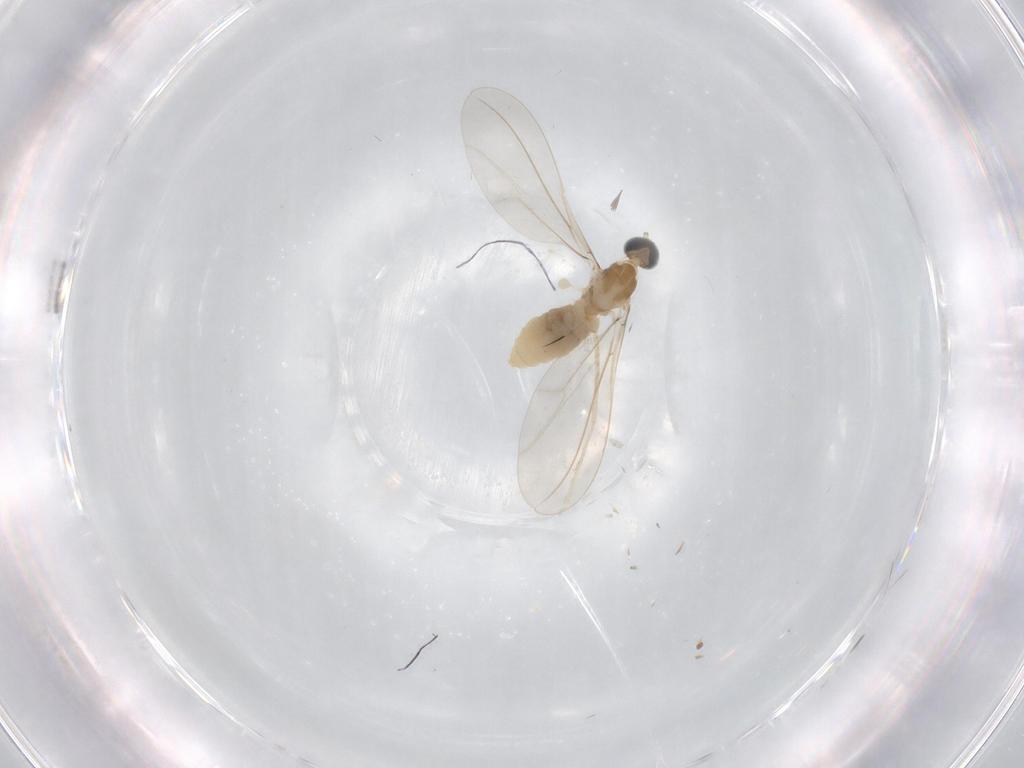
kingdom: Animalia
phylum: Arthropoda
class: Insecta
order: Diptera
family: Cecidomyiidae
